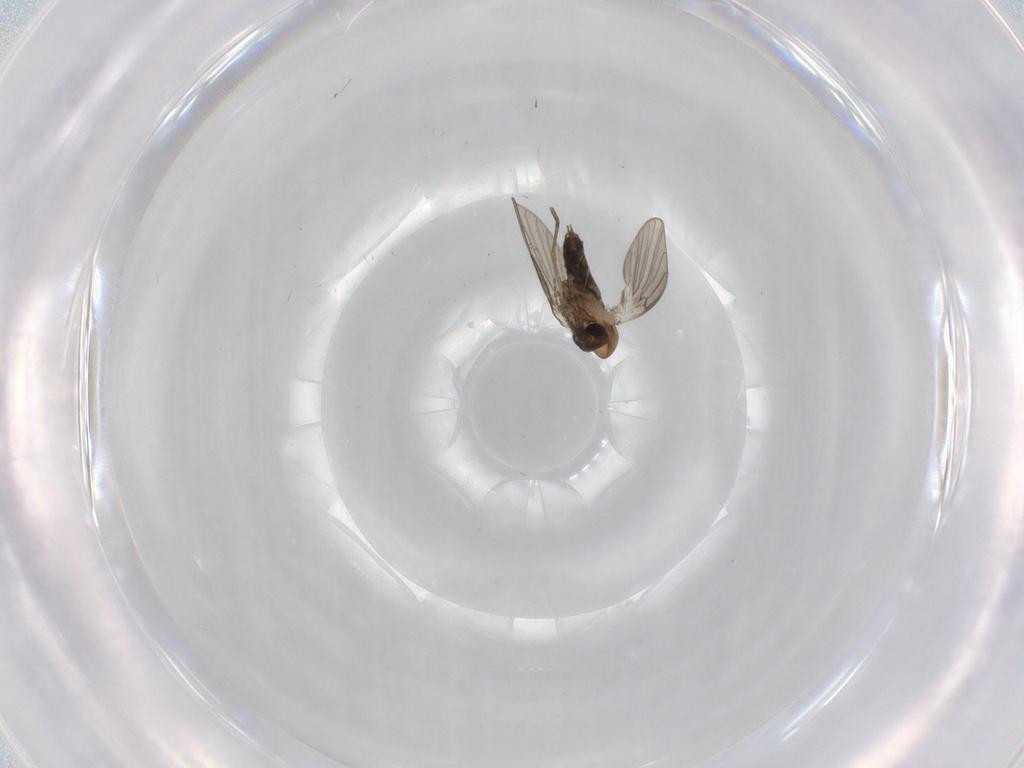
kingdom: Animalia
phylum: Arthropoda
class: Insecta
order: Diptera
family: Psychodidae
